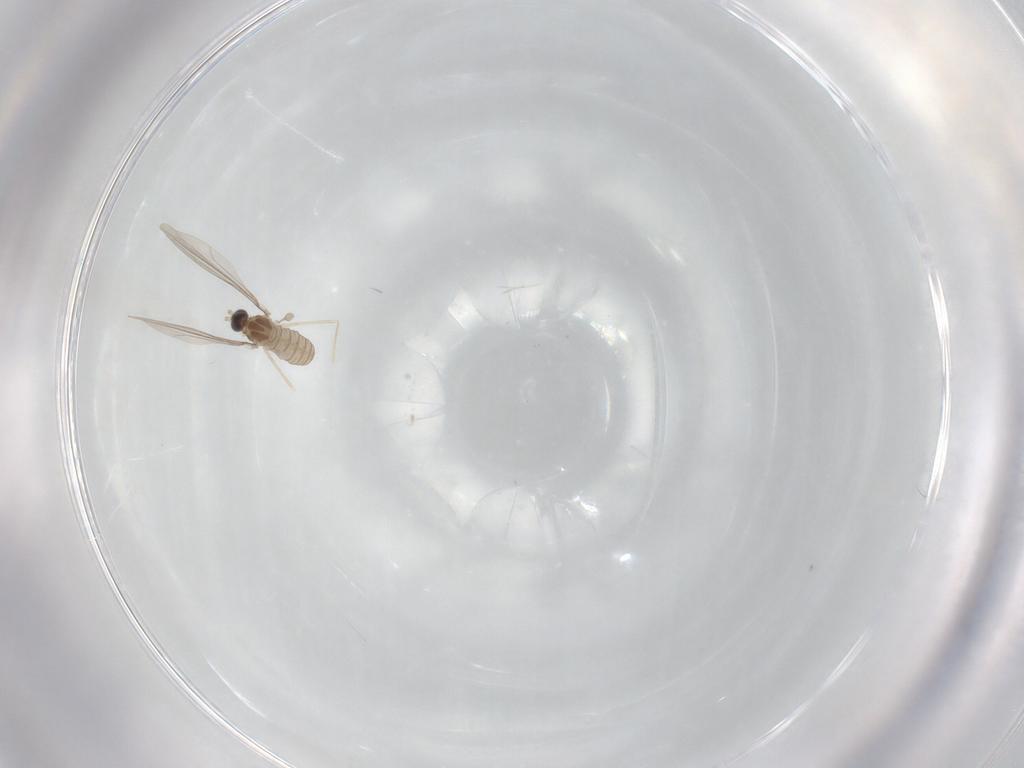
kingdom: Animalia
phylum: Arthropoda
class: Insecta
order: Diptera
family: Cecidomyiidae
